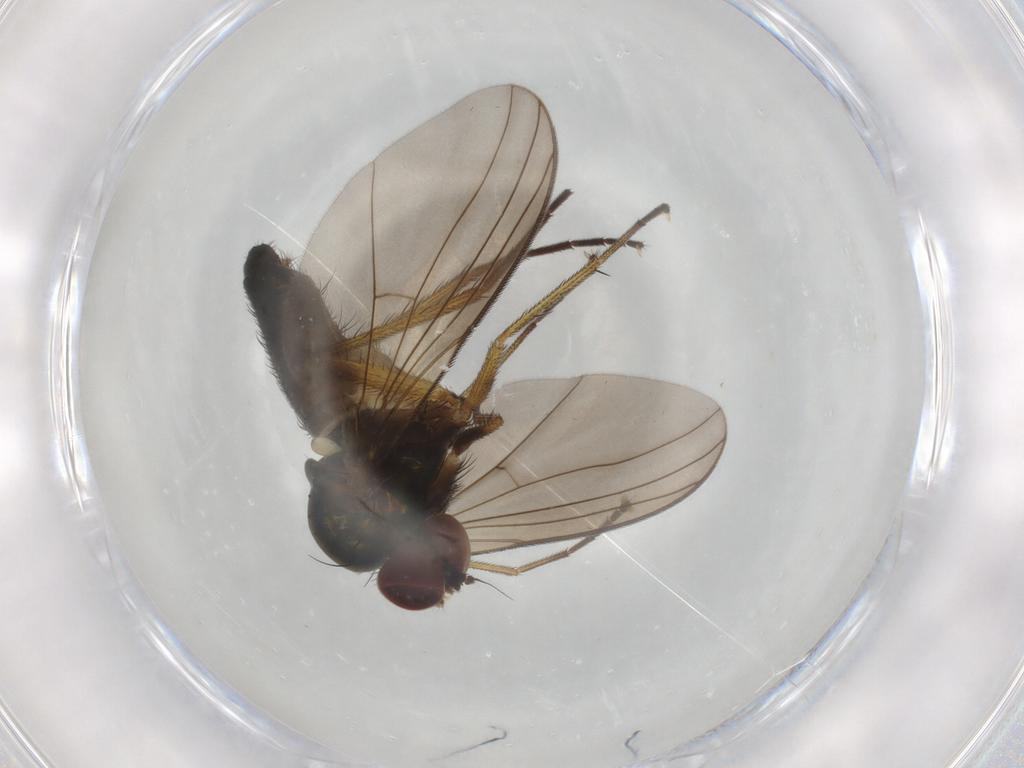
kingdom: Animalia
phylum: Arthropoda
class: Insecta
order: Diptera
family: Dolichopodidae
